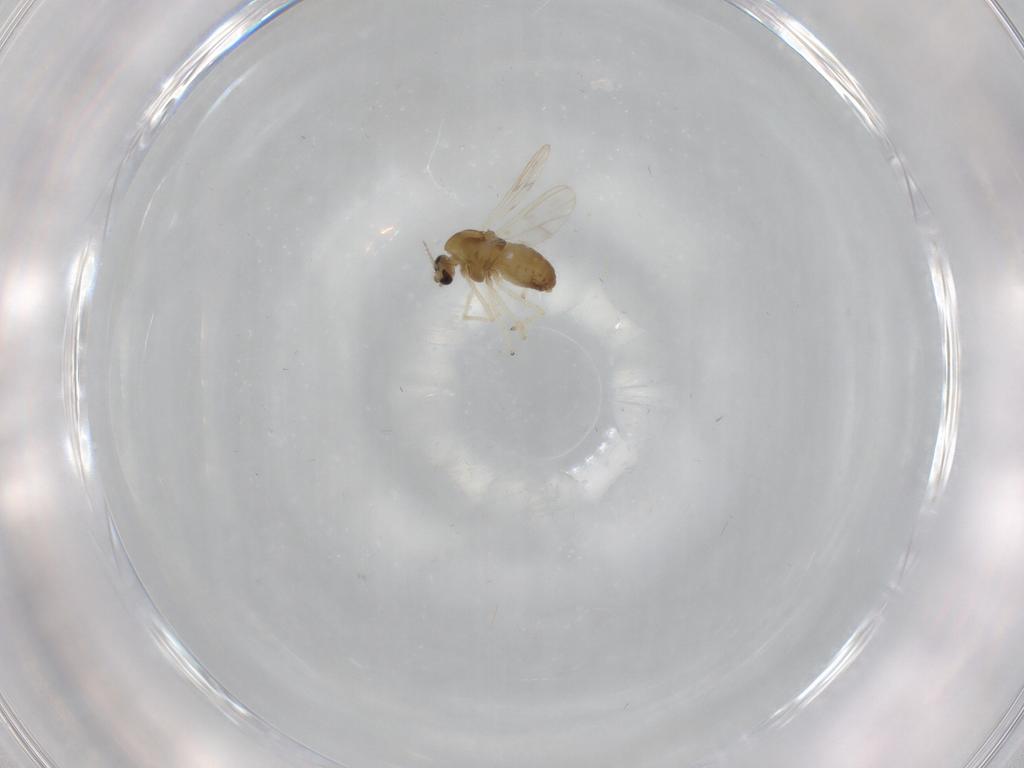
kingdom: Animalia
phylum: Arthropoda
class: Insecta
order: Diptera
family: Chironomidae
